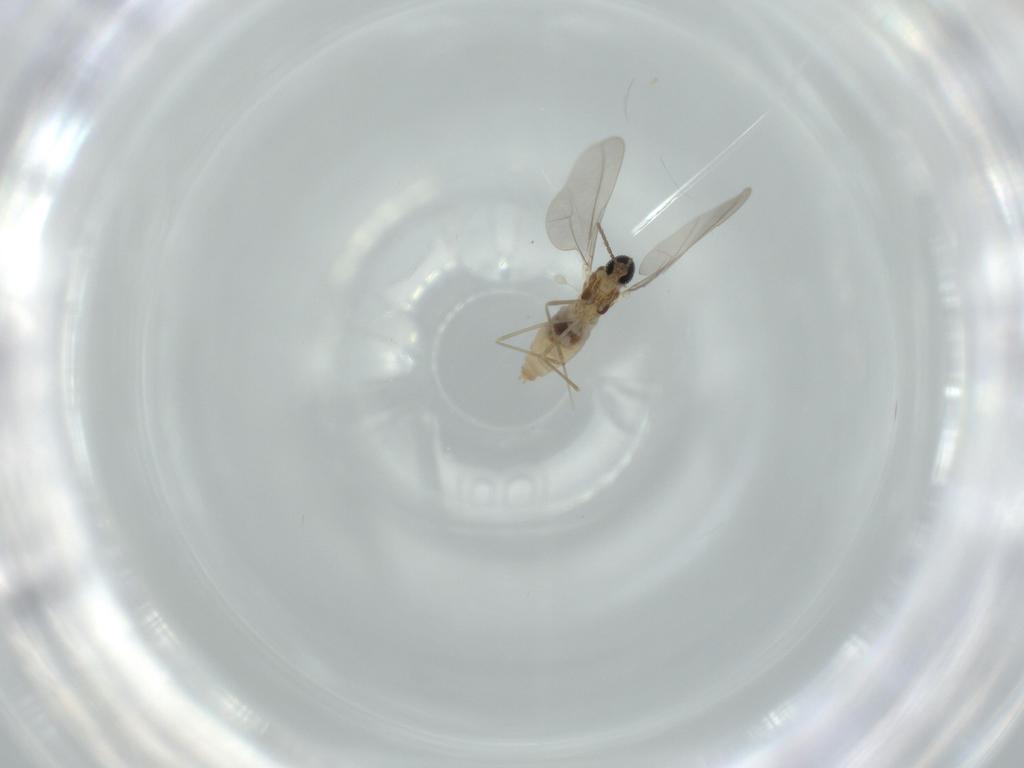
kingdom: Animalia
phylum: Arthropoda
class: Insecta
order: Diptera
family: Cecidomyiidae
